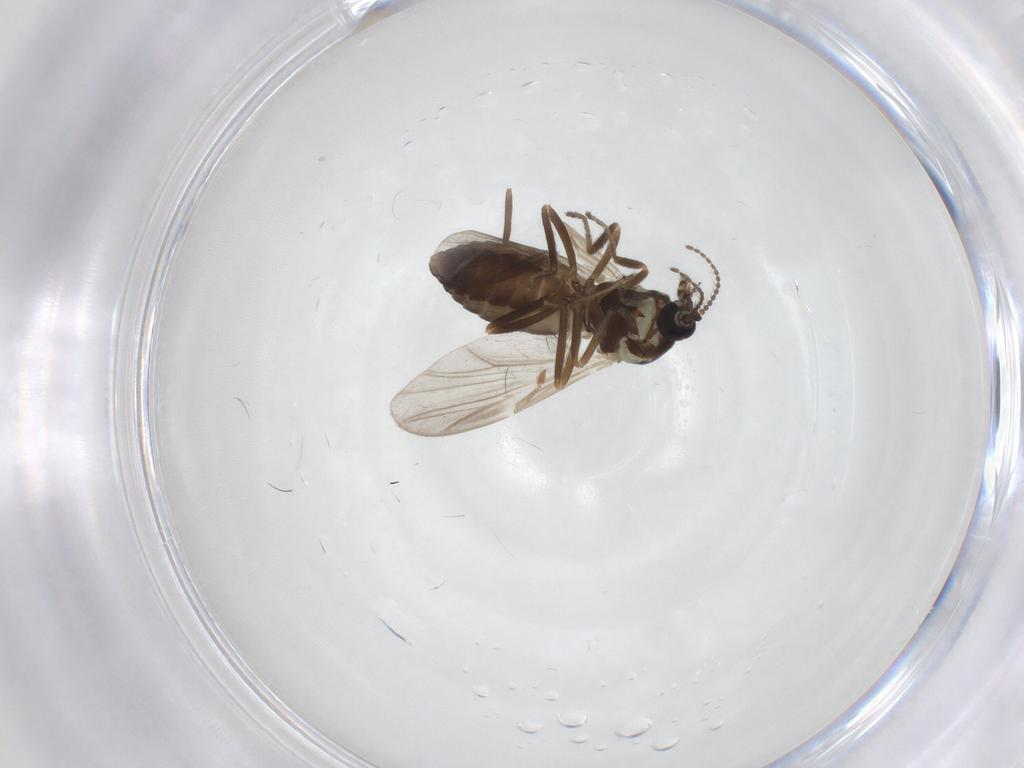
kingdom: Animalia
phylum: Arthropoda
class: Insecta
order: Diptera
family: Ceratopogonidae
